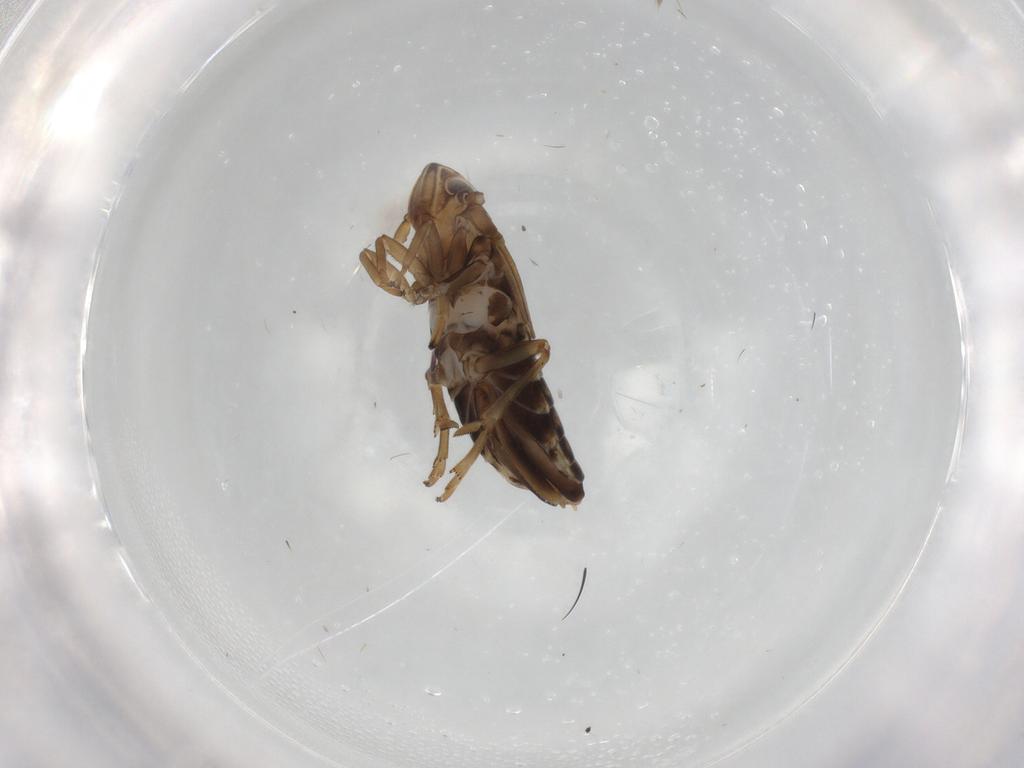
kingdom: Animalia
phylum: Arthropoda
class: Insecta
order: Hemiptera
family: Delphacidae
